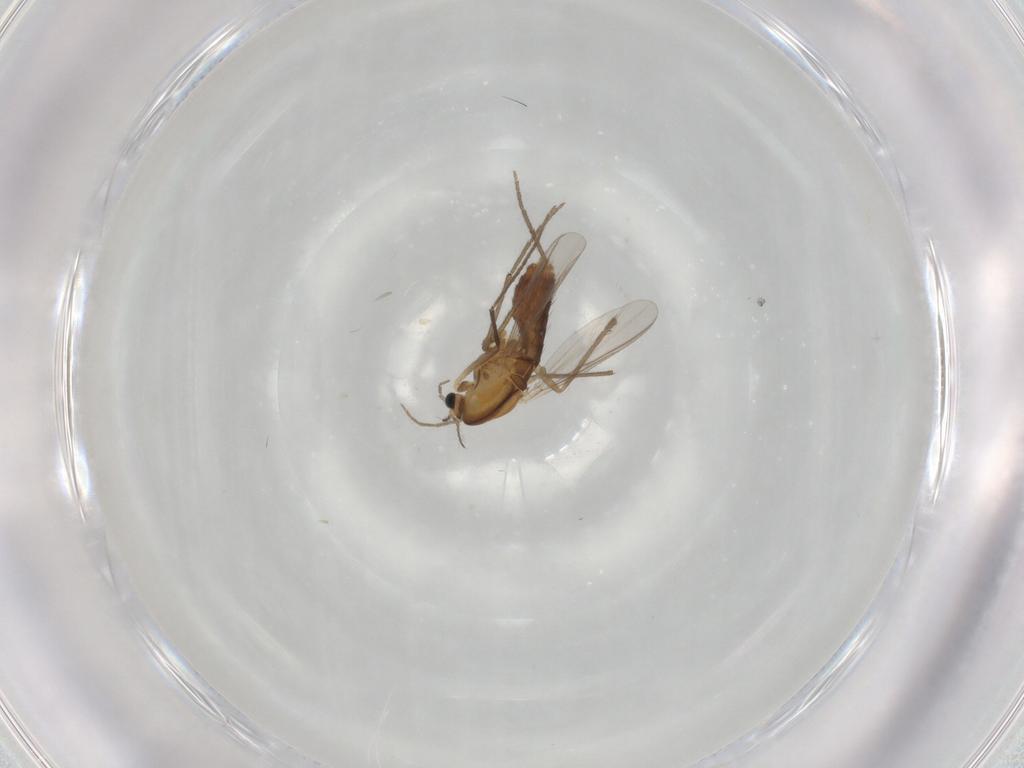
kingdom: Animalia
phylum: Arthropoda
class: Insecta
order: Diptera
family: Chironomidae
